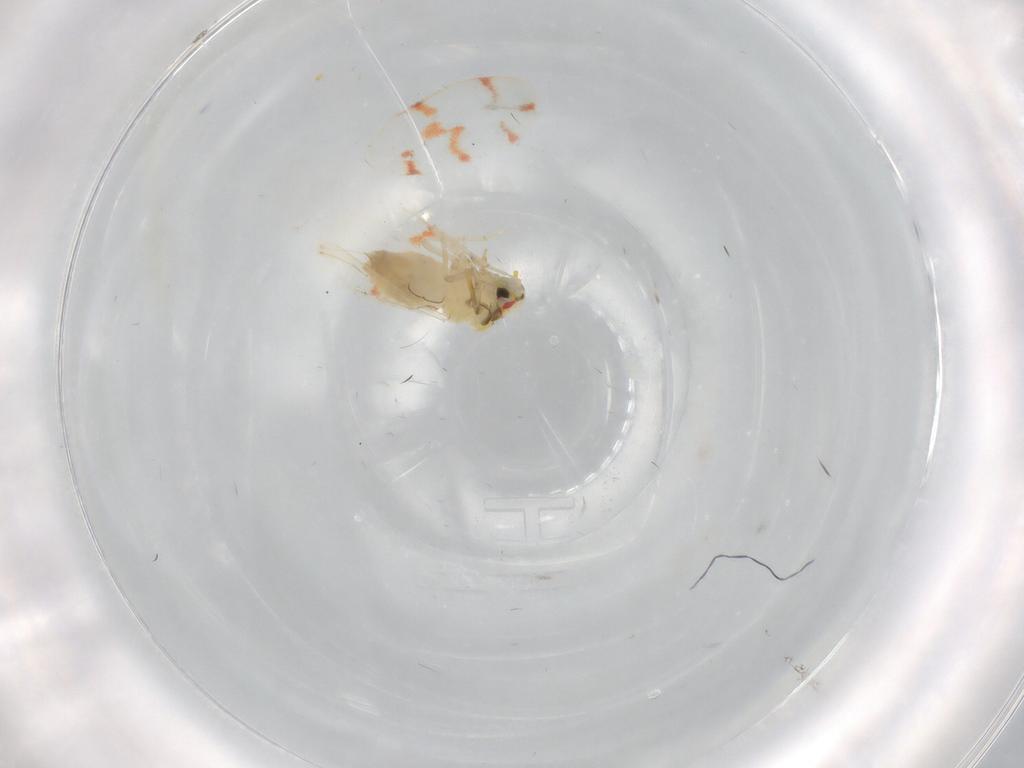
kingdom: Animalia
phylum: Arthropoda
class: Insecta
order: Hemiptera
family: Aleyrodidae
